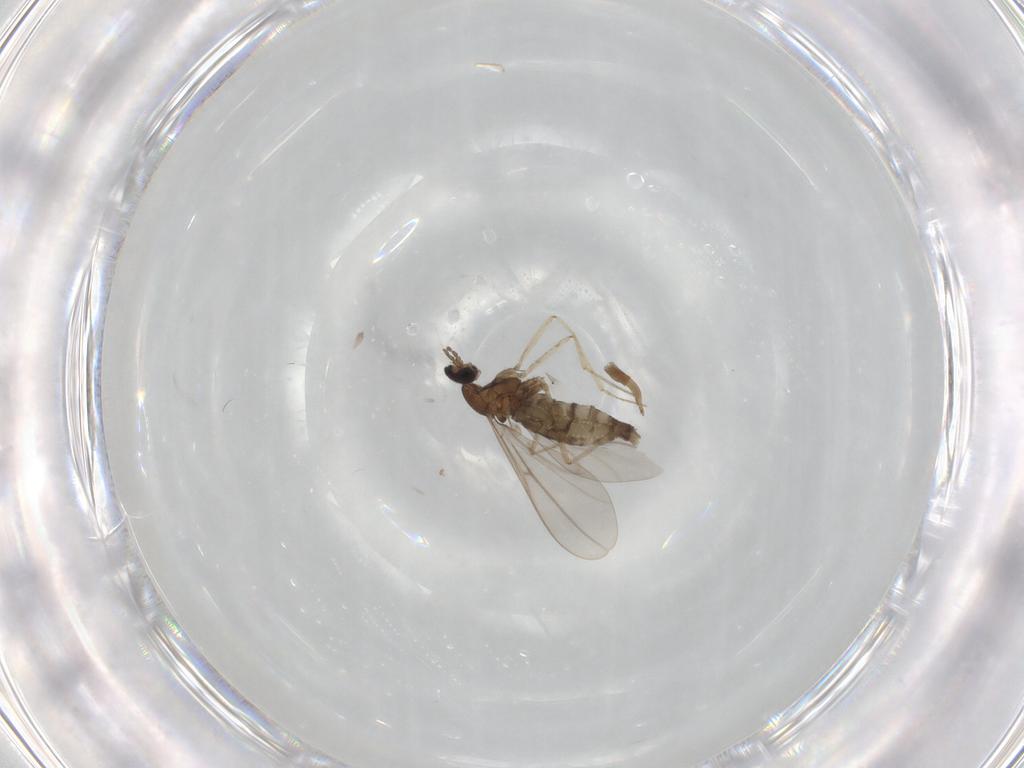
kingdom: Animalia
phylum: Arthropoda
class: Insecta
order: Diptera
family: Cecidomyiidae
